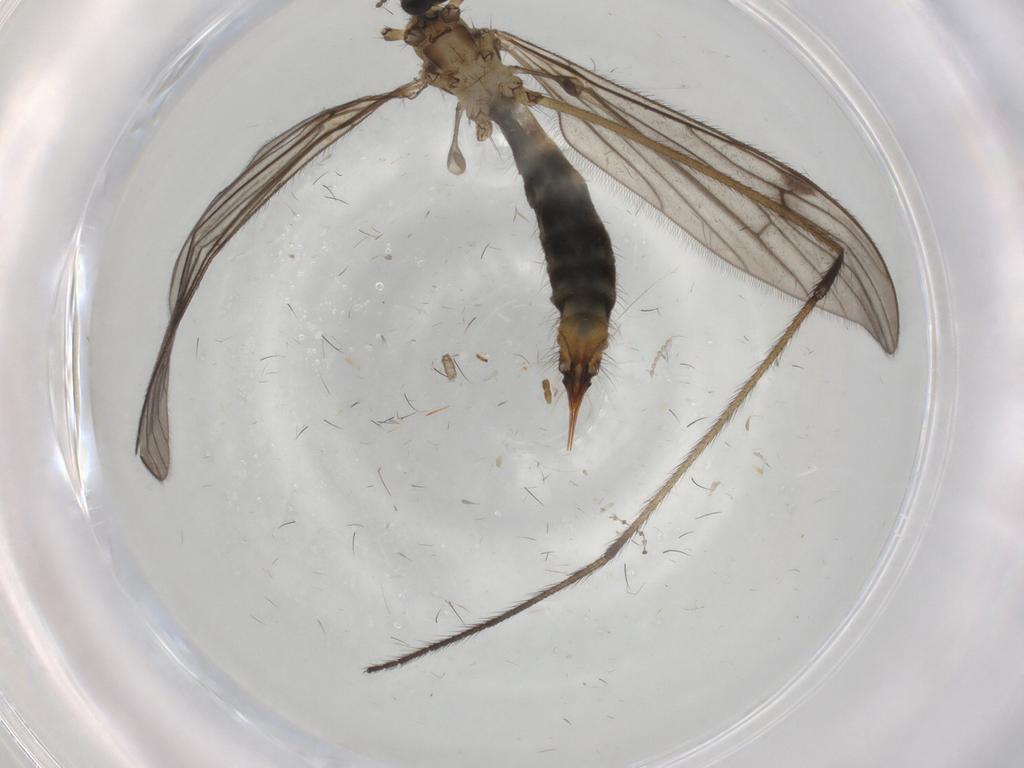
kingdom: Animalia
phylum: Arthropoda
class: Insecta
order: Diptera
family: Limoniidae
